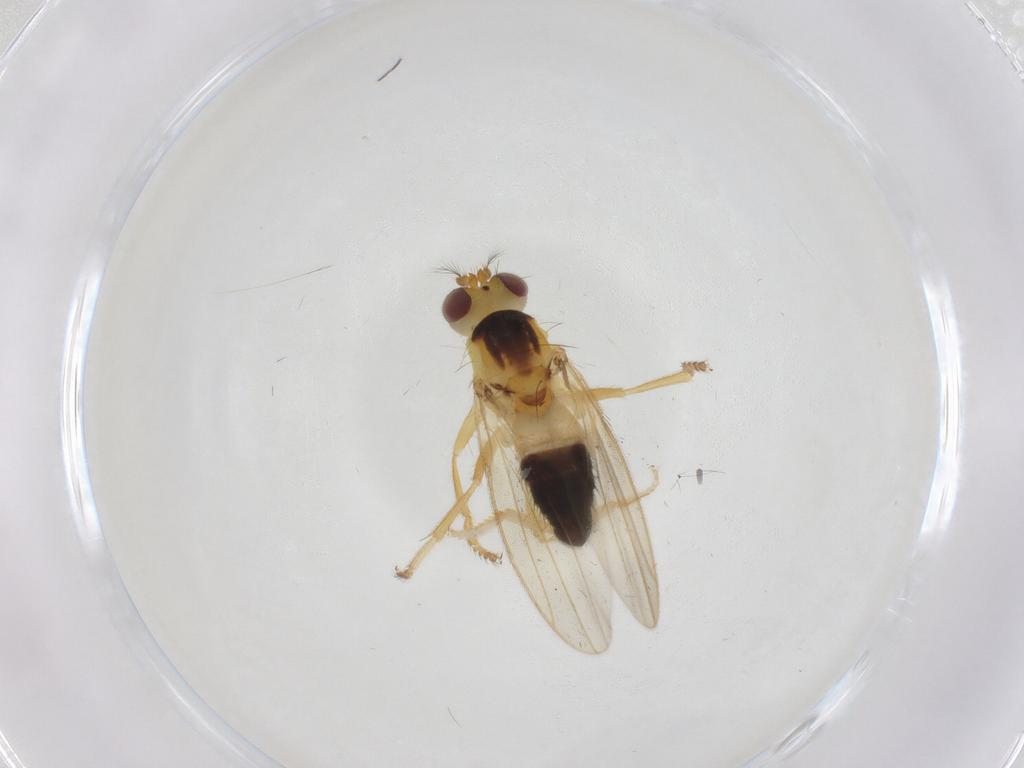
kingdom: Animalia
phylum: Arthropoda
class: Insecta
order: Diptera
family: Periscelididae
